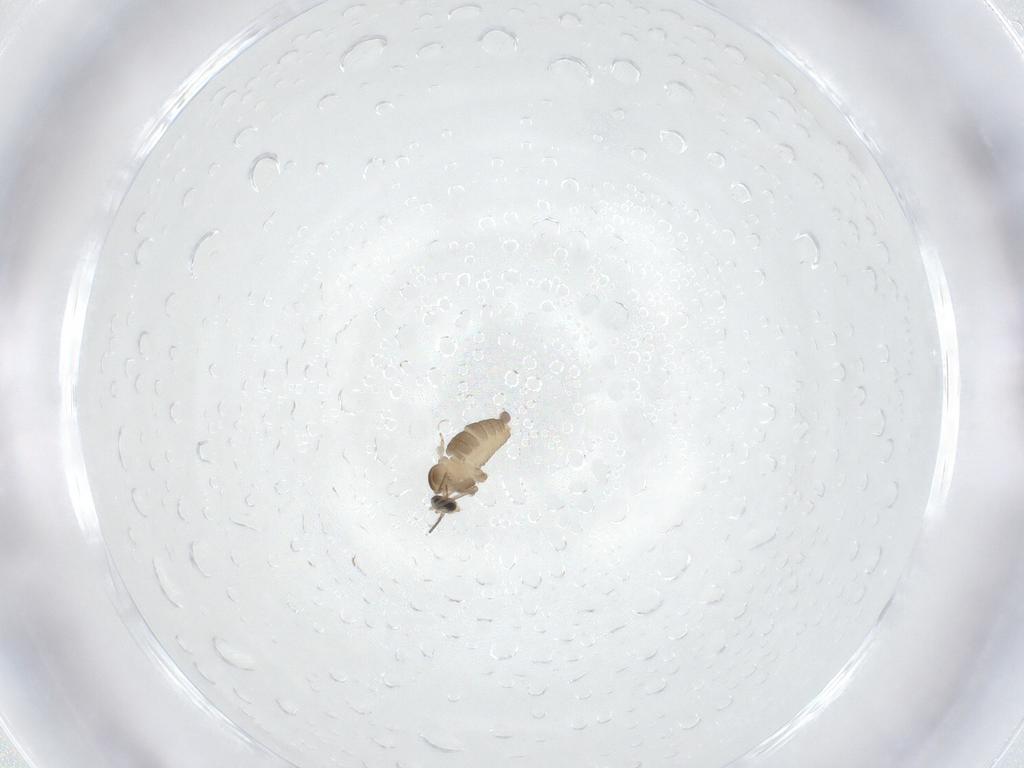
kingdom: Animalia
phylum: Arthropoda
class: Insecta
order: Diptera
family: Cecidomyiidae
